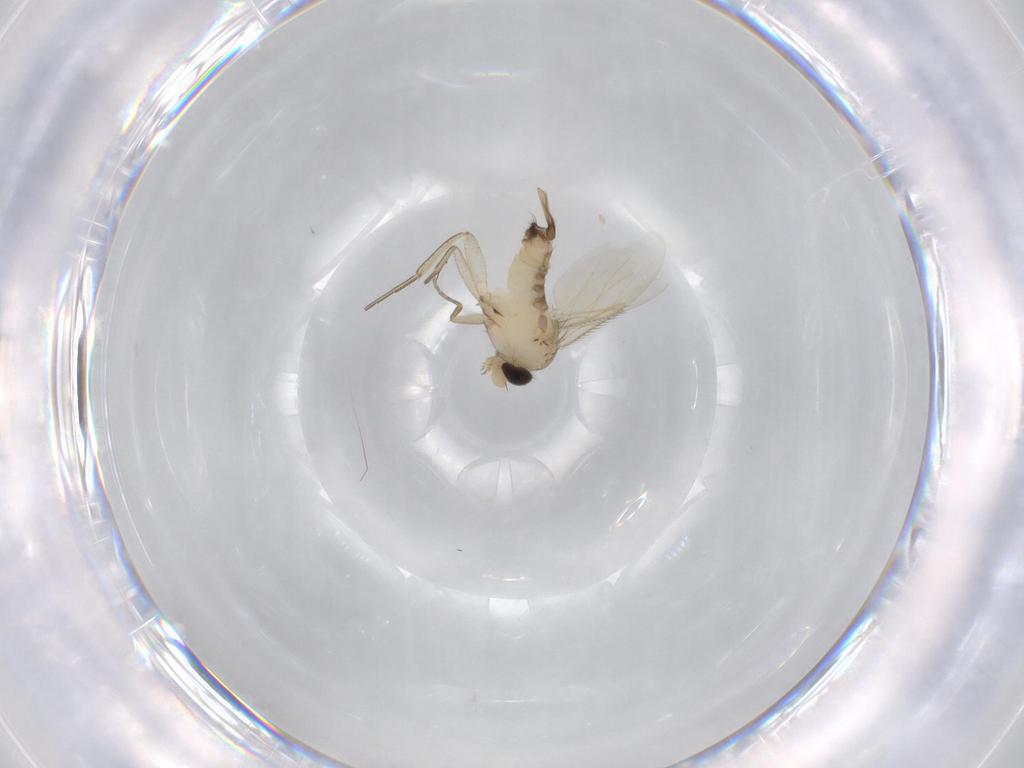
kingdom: Animalia
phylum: Arthropoda
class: Insecta
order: Diptera
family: Phoridae
